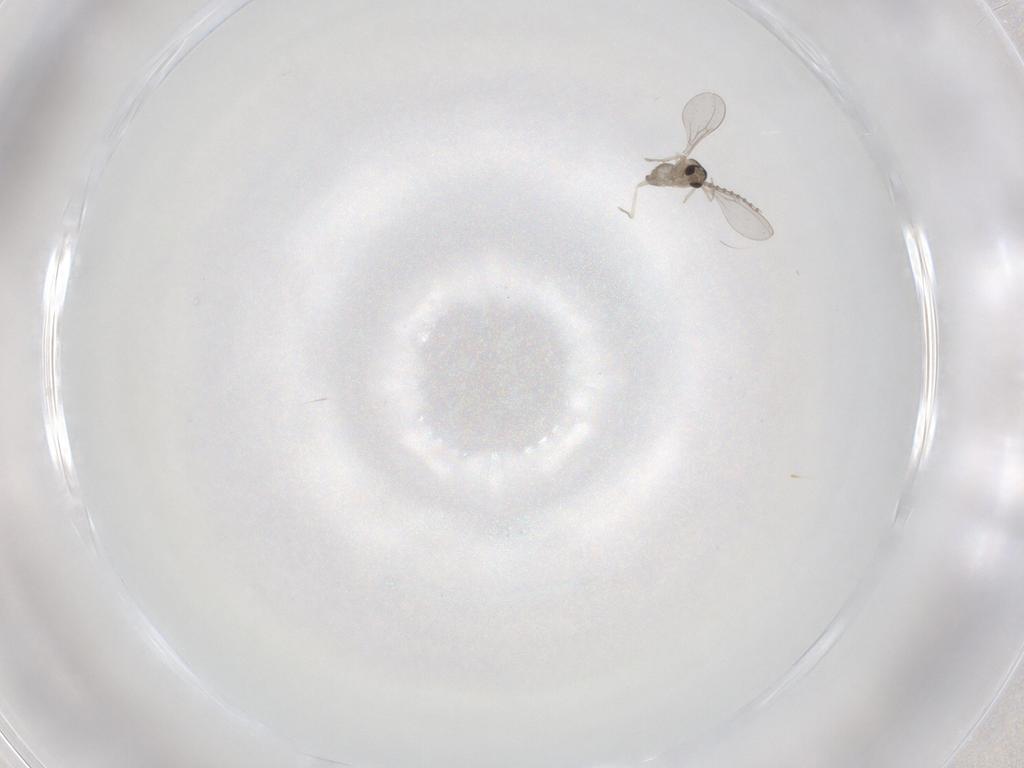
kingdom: Animalia
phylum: Arthropoda
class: Insecta
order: Diptera
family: Cecidomyiidae
